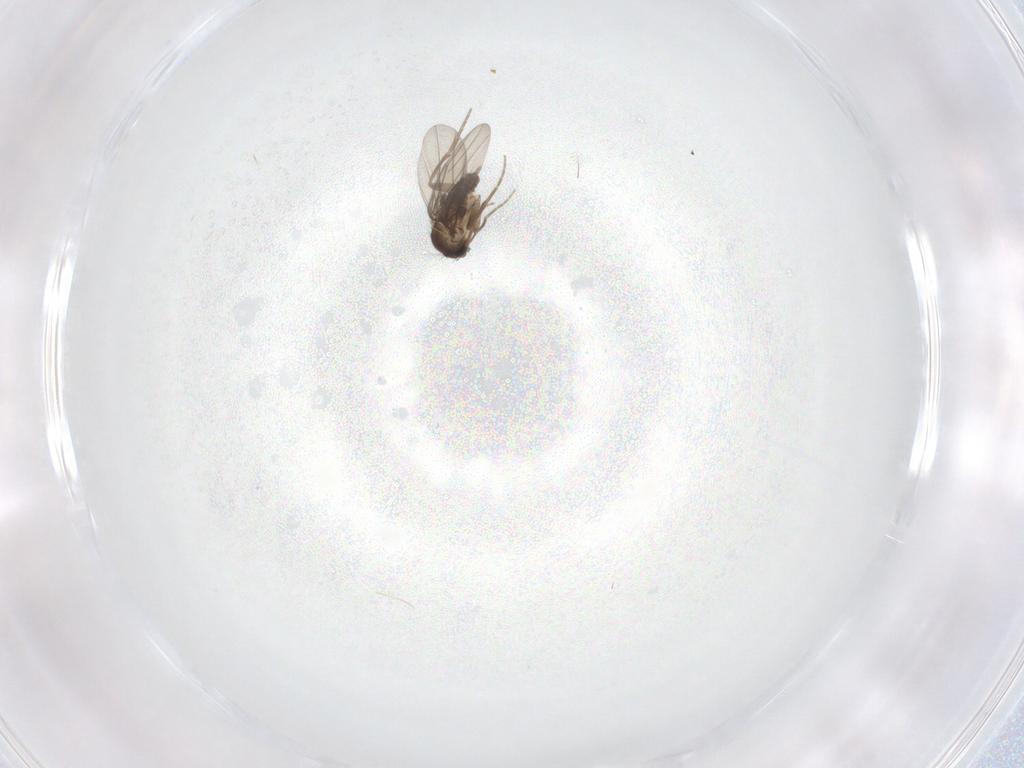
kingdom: Animalia
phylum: Arthropoda
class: Insecta
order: Diptera
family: Phoridae
